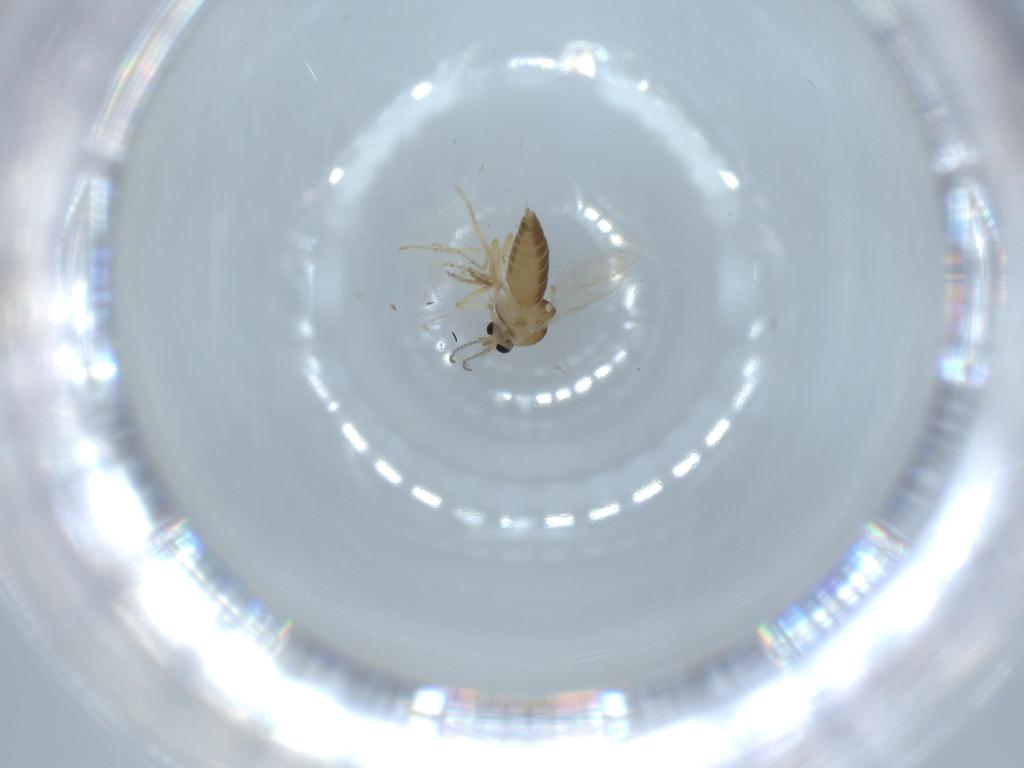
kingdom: Animalia
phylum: Arthropoda
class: Insecta
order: Diptera
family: Ceratopogonidae
